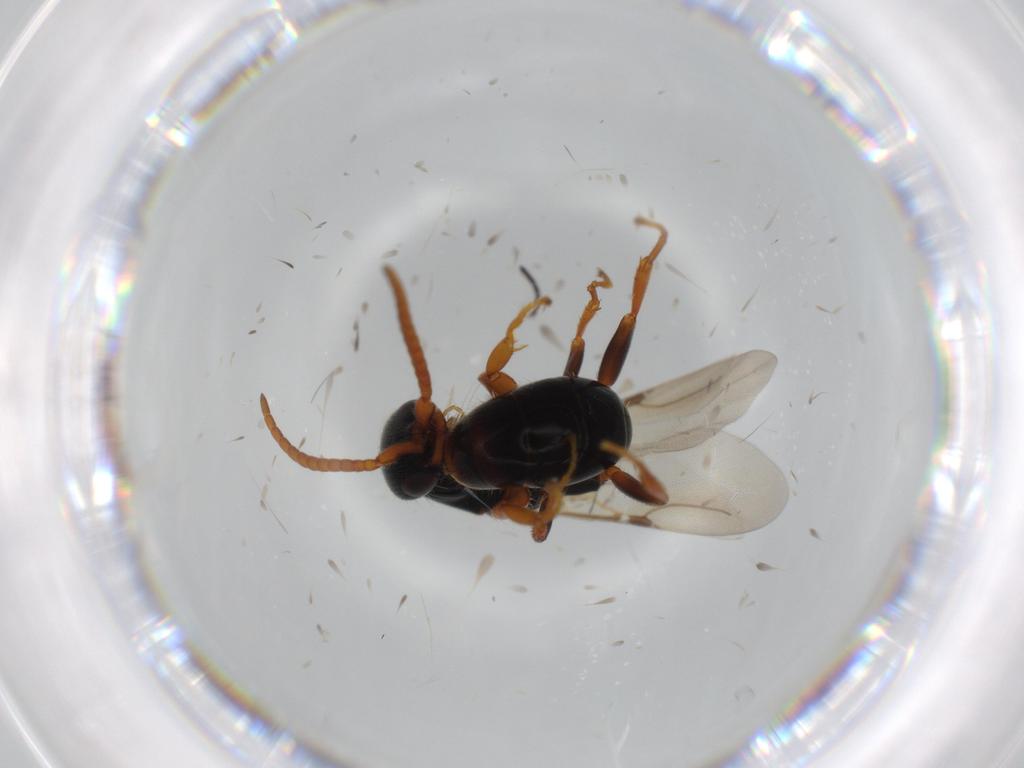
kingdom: Animalia
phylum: Arthropoda
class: Insecta
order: Hymenoptera
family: Bethylidae
